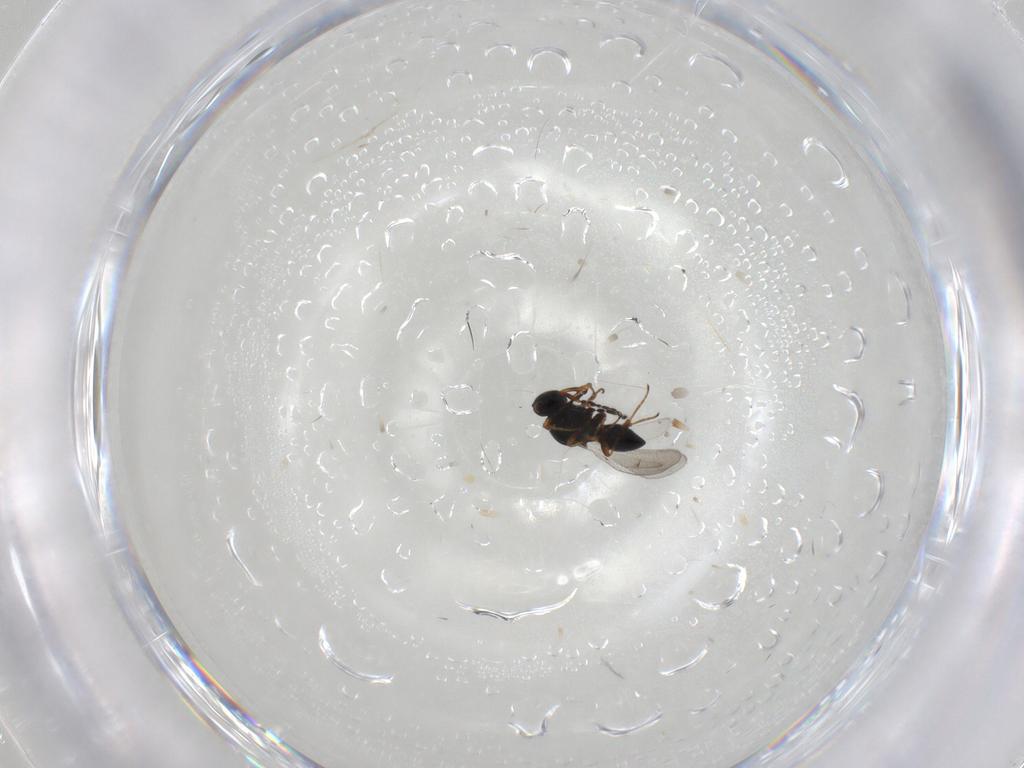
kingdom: Animalia
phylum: Arthropoda
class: Insecta
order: Hymenoptera
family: Platygastridae
